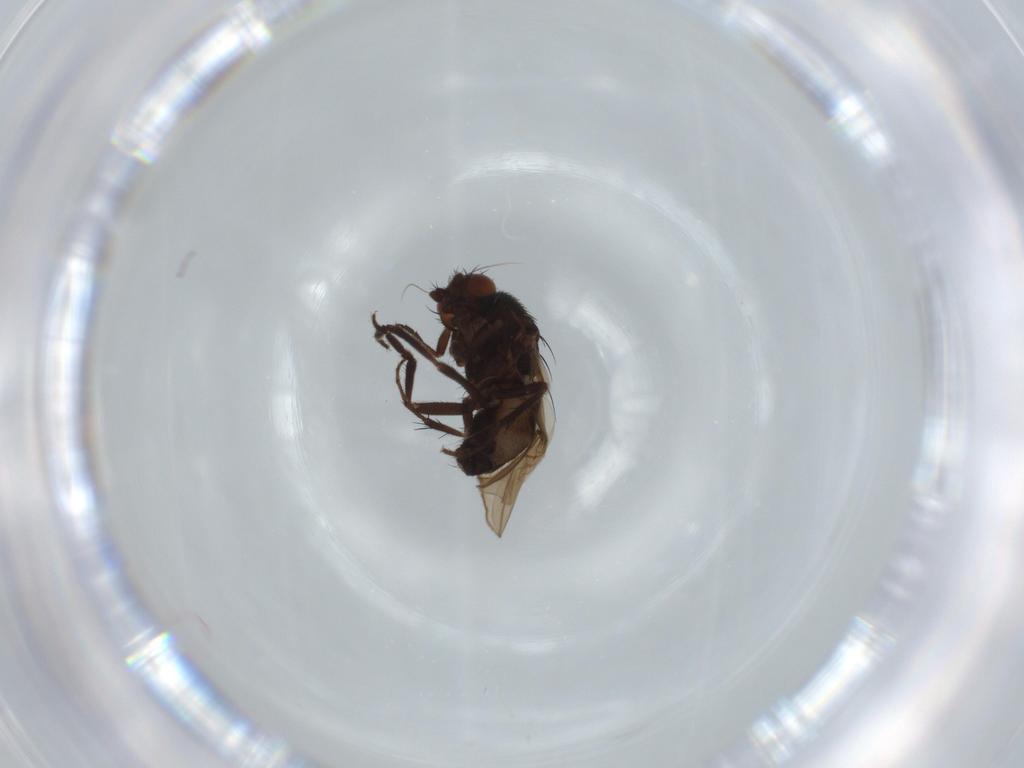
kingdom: Animalia
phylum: Arthropoda
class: Insecta
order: Diptera
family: Sphaeroceridae
